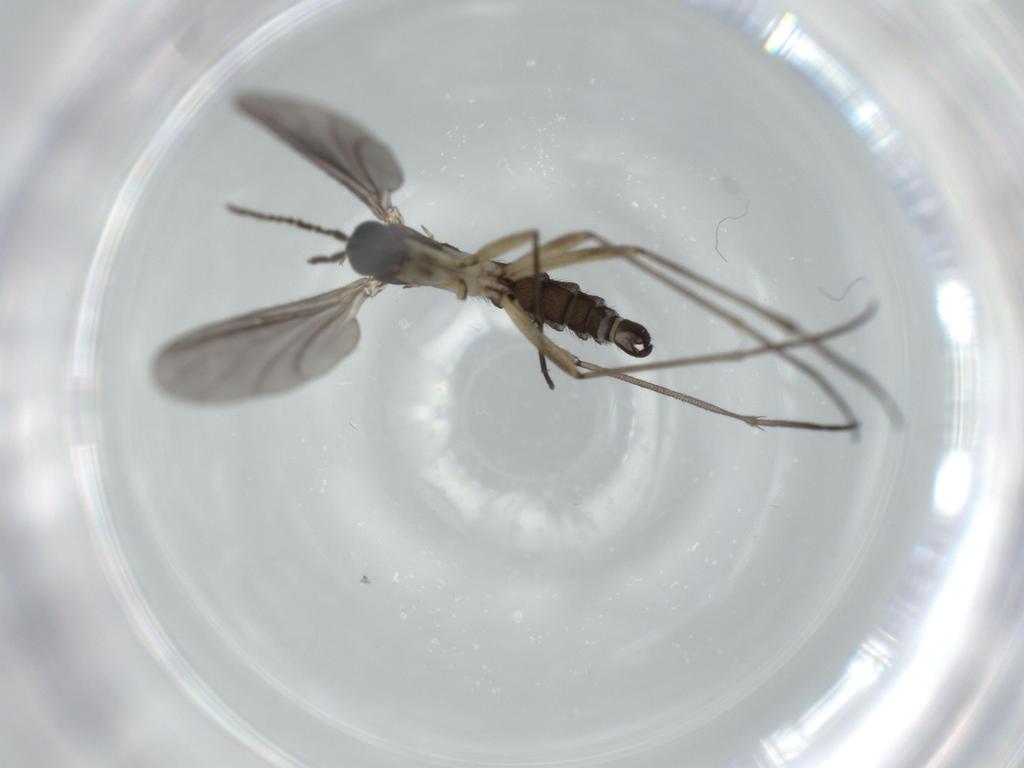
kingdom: Animalia
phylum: Arthropoda
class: Insecta
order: Diptera
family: Sciaridae
